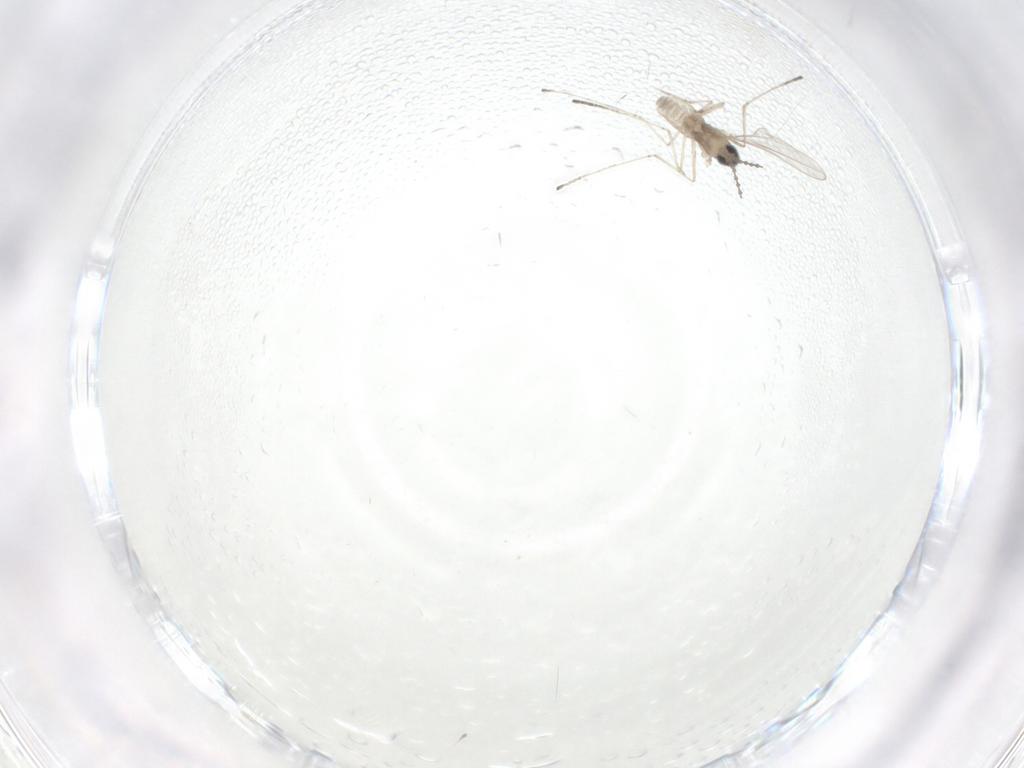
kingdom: Animalia
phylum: Arthropoda
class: Insecta
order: Diptera
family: Cecidomyiidae
